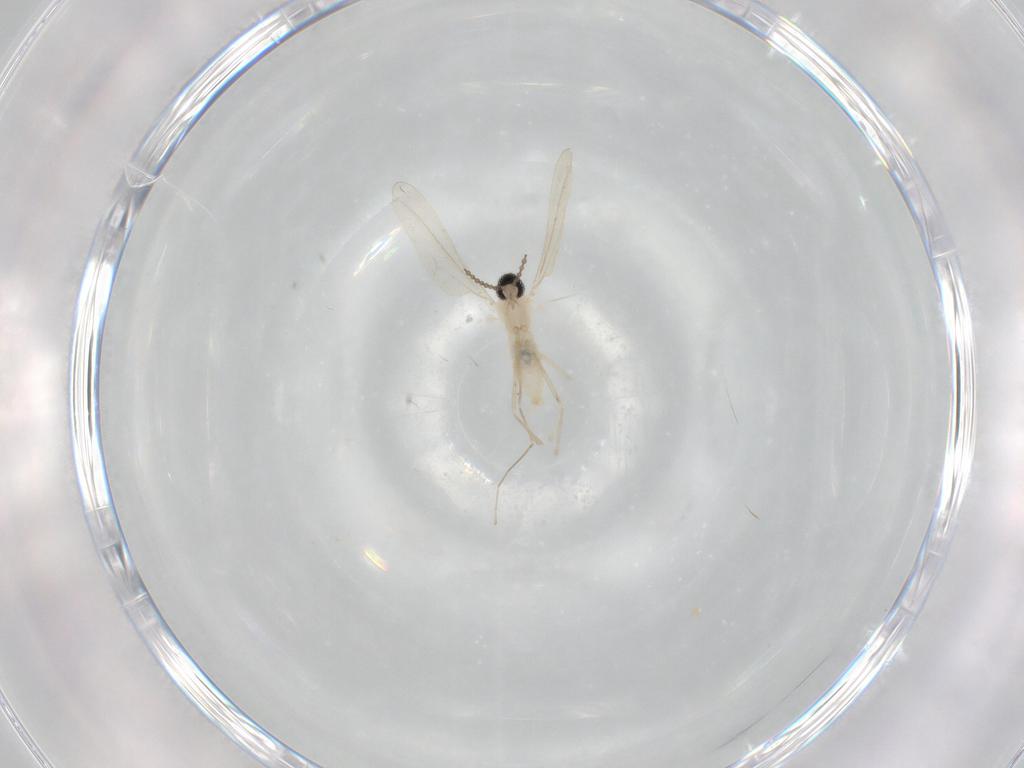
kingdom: Animalia
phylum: Arthropoda
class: Insecta
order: Diptera
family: Cecidomyiidae
